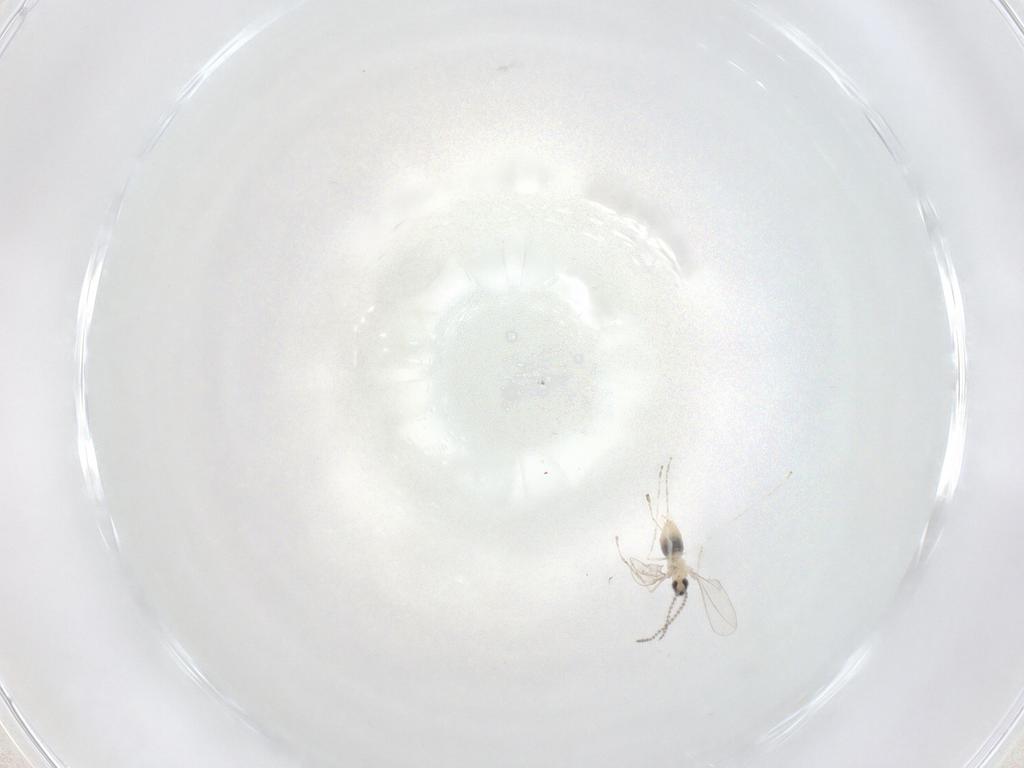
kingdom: Animalia
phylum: Arthropoda
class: Insecta
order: Diptera
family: Cecidomyiidae
